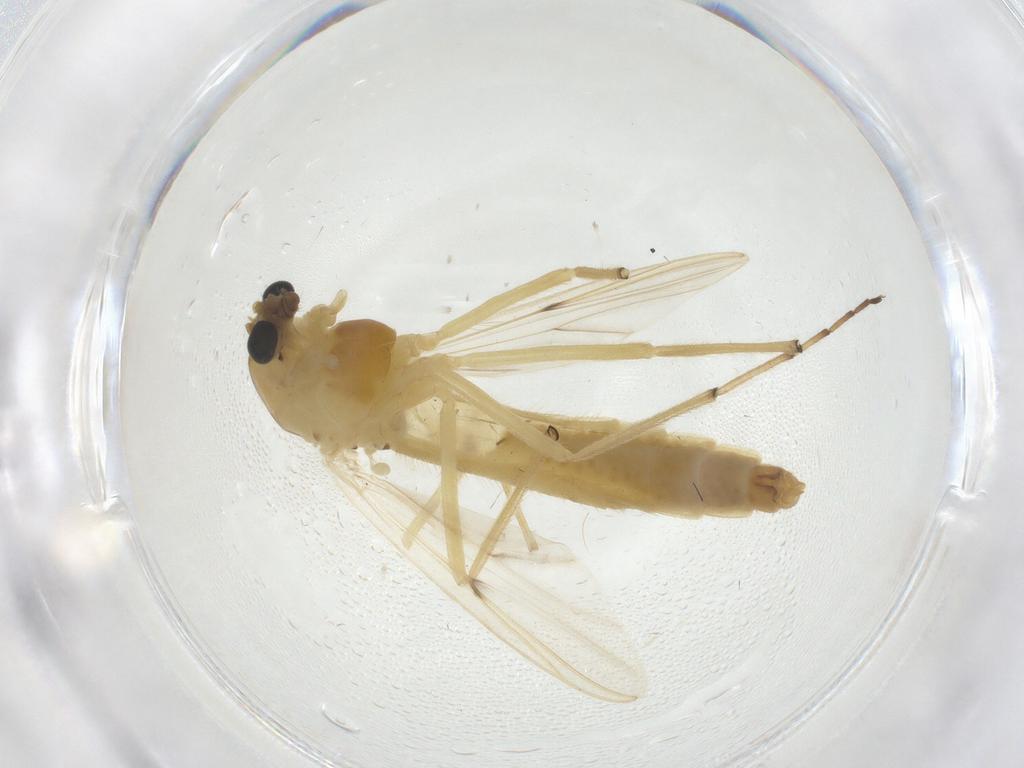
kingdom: Animalia
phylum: Arthropoda
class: Insecta
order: Diptera
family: Chironomidae
